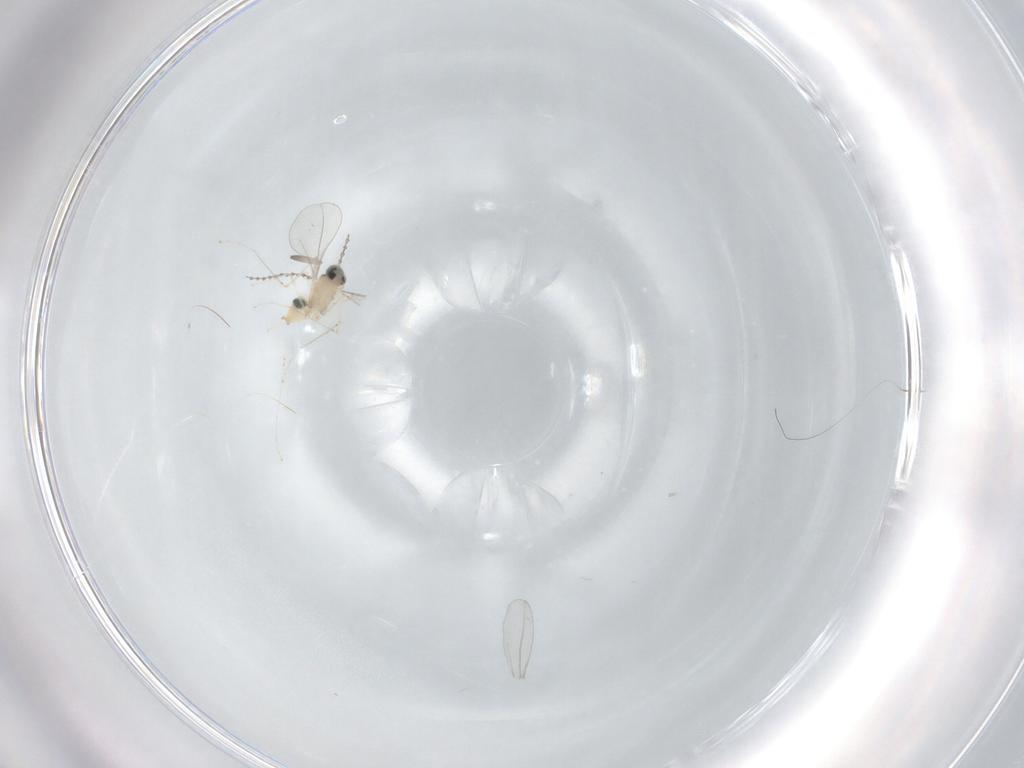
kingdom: Animalia
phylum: Arthropoda
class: Insecta
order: Diptera
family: Cecidomyiidae
